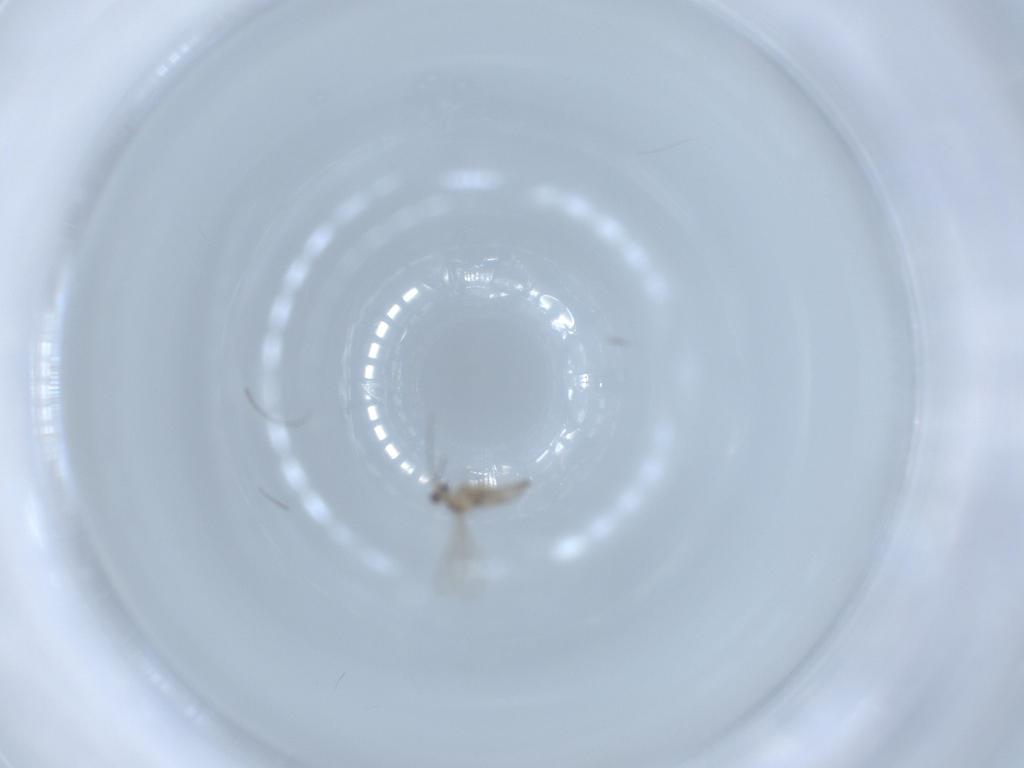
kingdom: Animalia
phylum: Arthropoda
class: Insecta
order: Diptera
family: Cecidomyiidae
